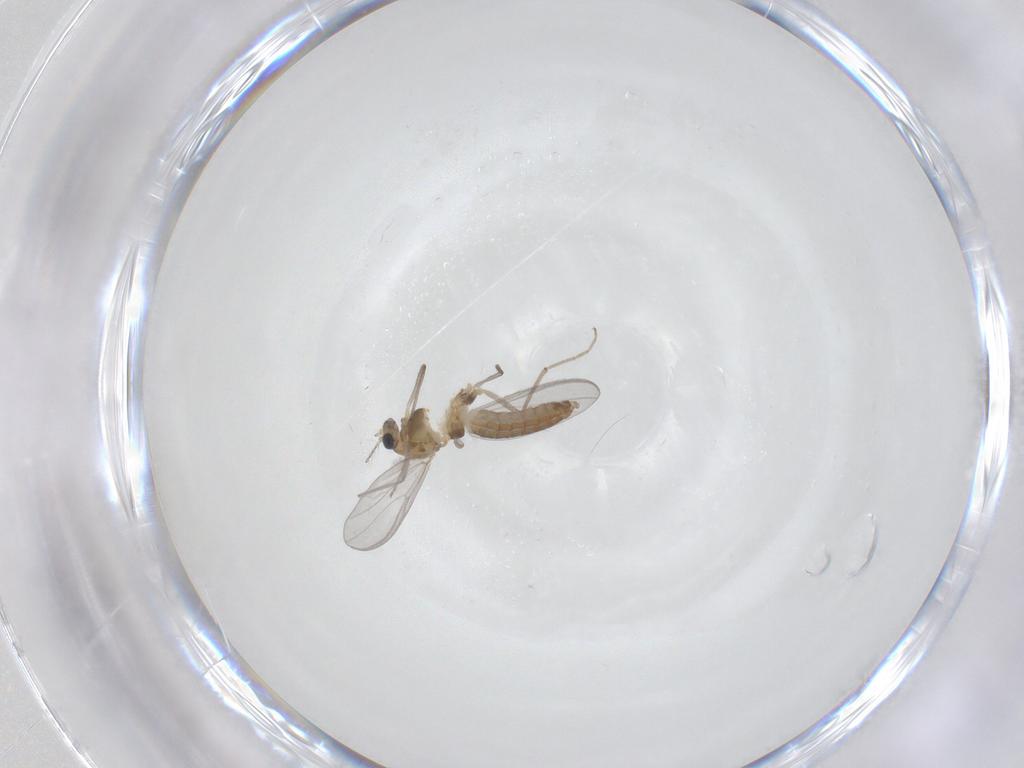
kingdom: Animalia
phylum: Arthropoda
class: Insecta
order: Diptera
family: Chironomidae
